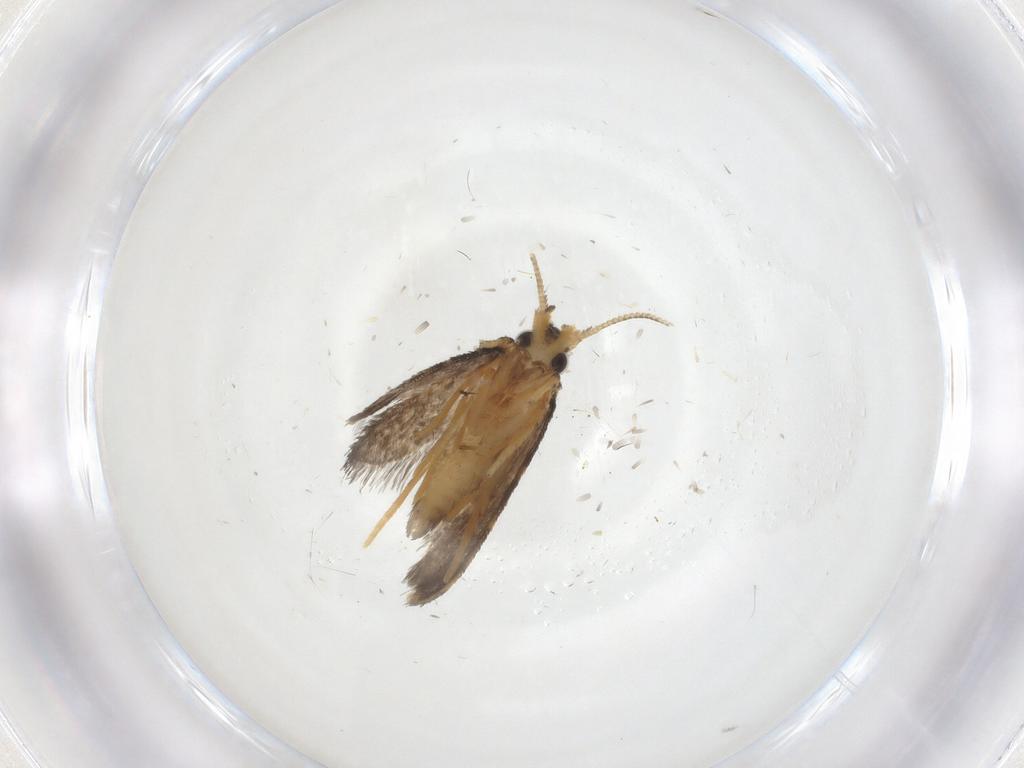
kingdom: Animalia
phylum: Arthropoda
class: Insecta
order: Lepidoptera
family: Psychidae
